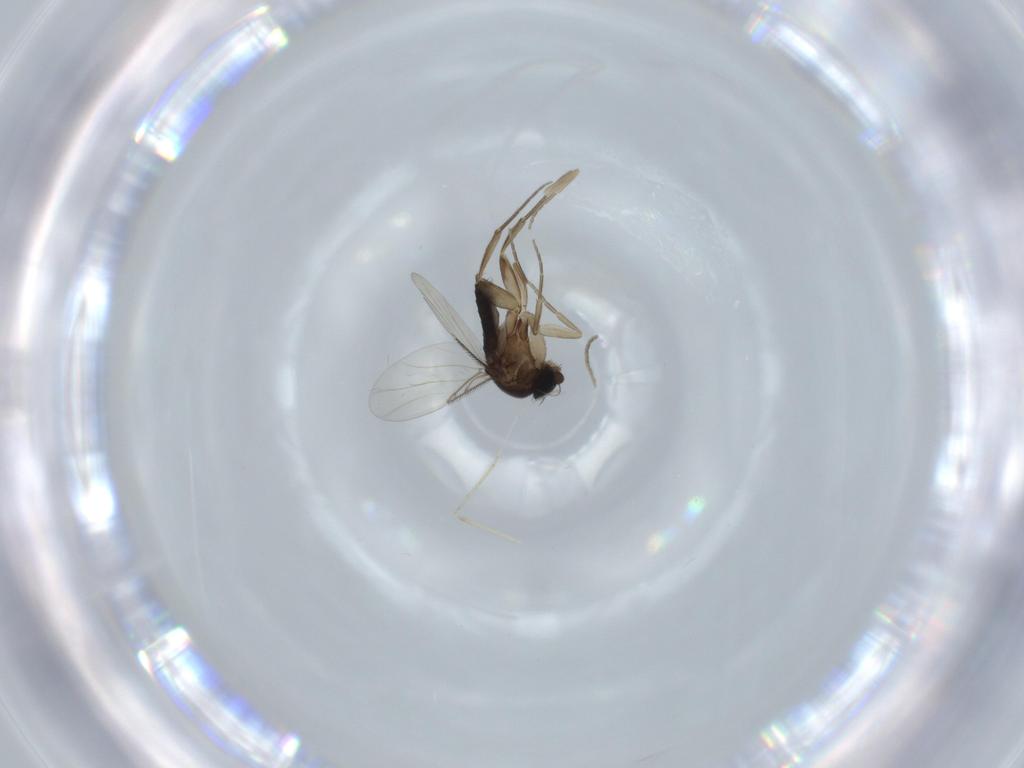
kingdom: Animalia
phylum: Arthropoda
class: Insecta
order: Diptera
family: Phoridae
